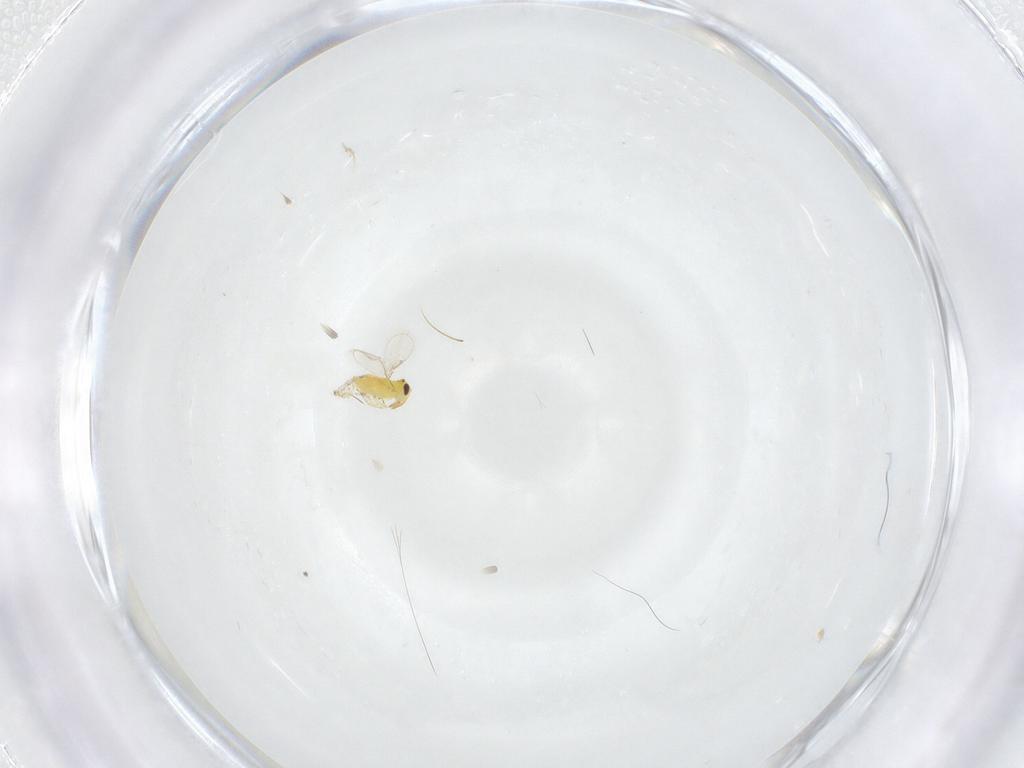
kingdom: Animalia
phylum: Arthropoda
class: Insecta
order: Hymenoptera
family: Aphelinidae
